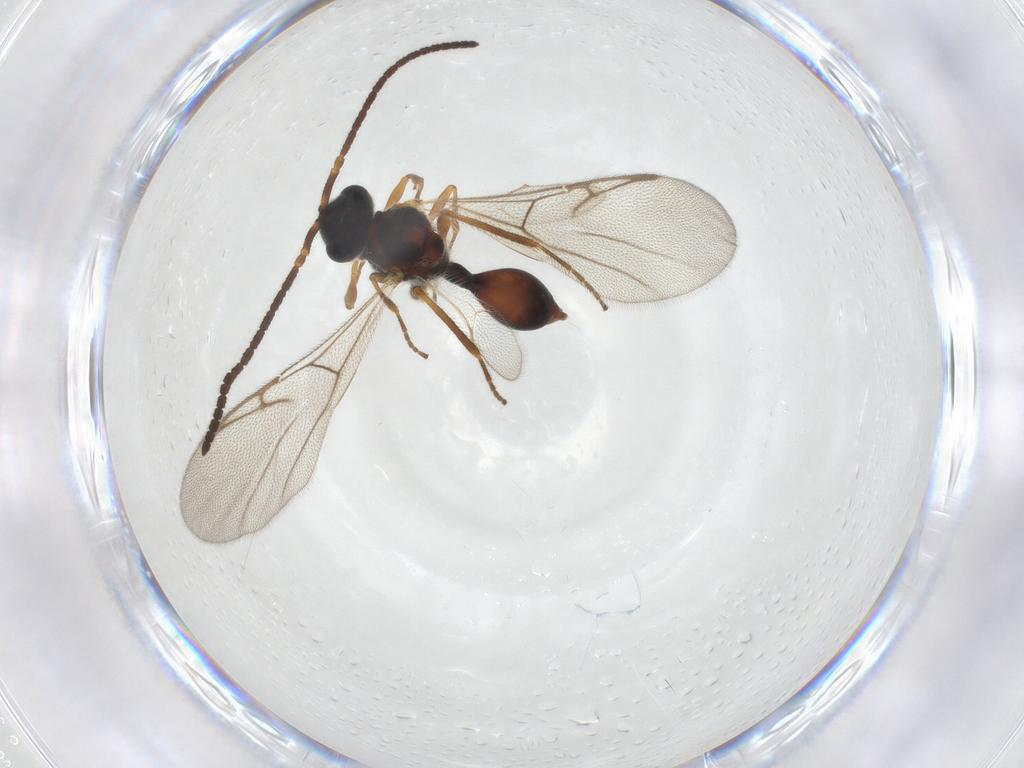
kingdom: Animalia
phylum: Arthropoda
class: Insecta
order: Hymenoptera
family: Diapriidae
